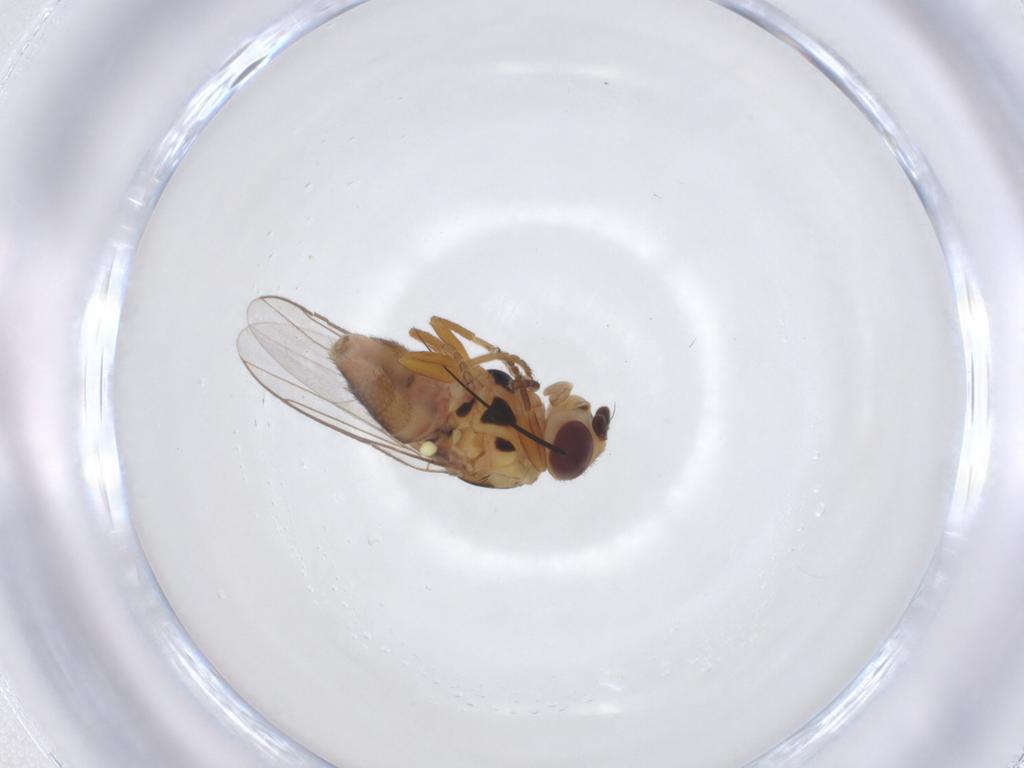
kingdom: Animalia
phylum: Arthropoda
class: Insecta
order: Diptera
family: Chloropidae
